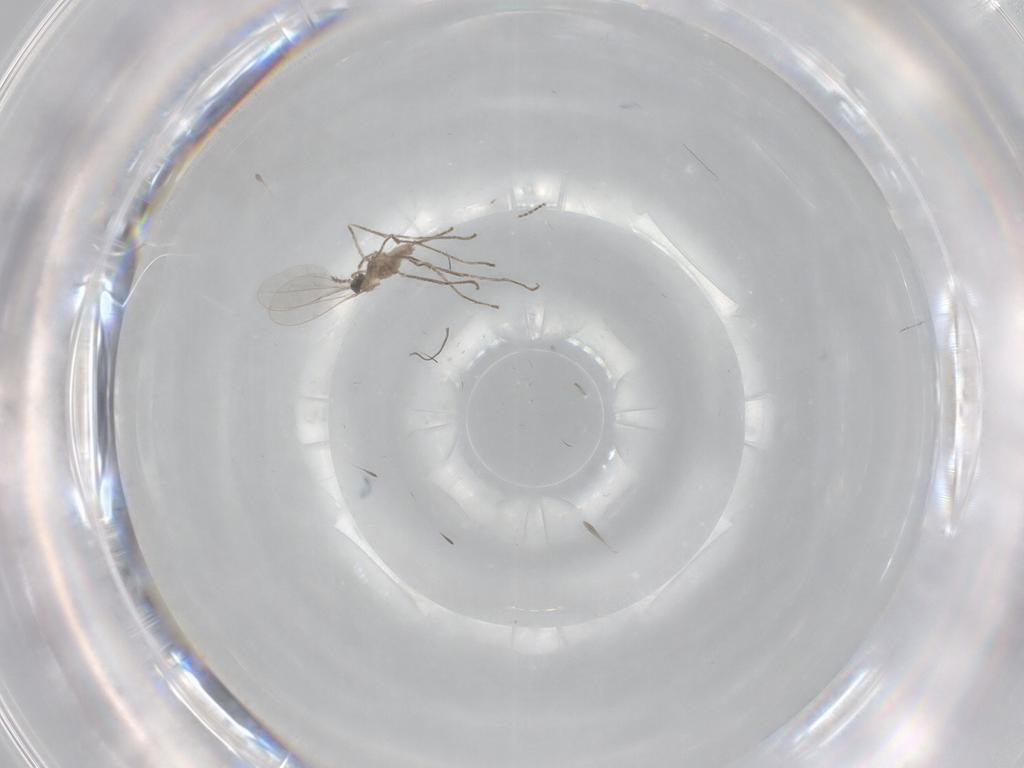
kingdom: Animalia
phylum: Arthropoda
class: Insecta
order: Diptera
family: Cecidomyiidae
